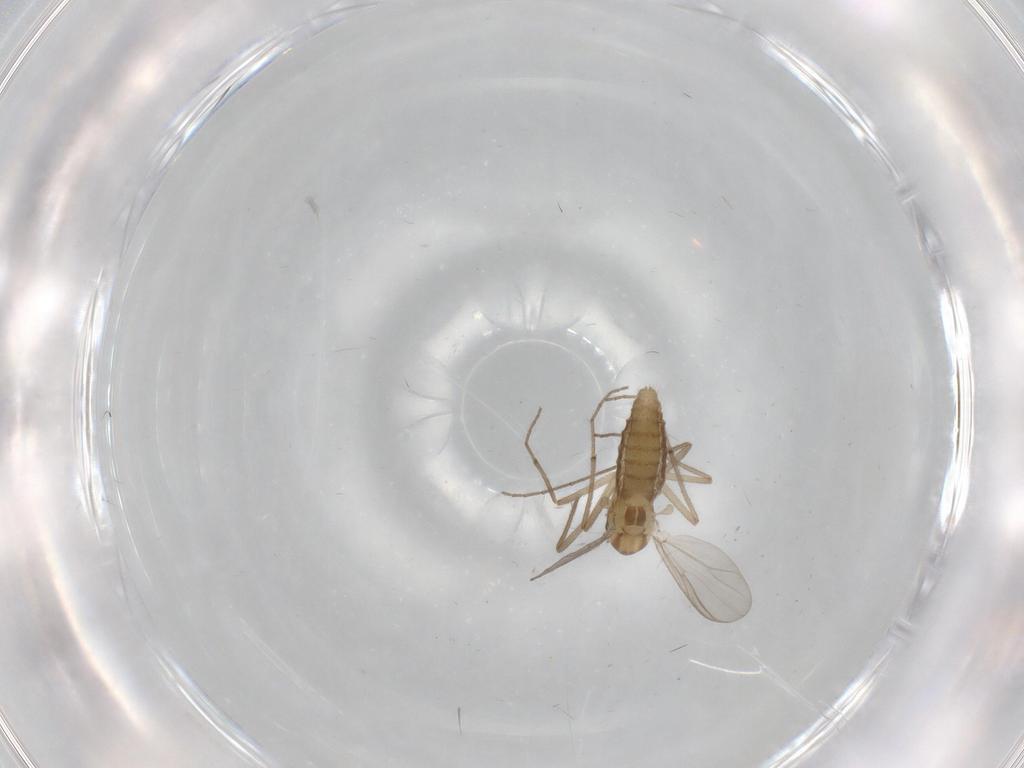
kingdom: Animalia
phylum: Arthropoda
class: Insecta
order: Diptera
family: Chironomidae
